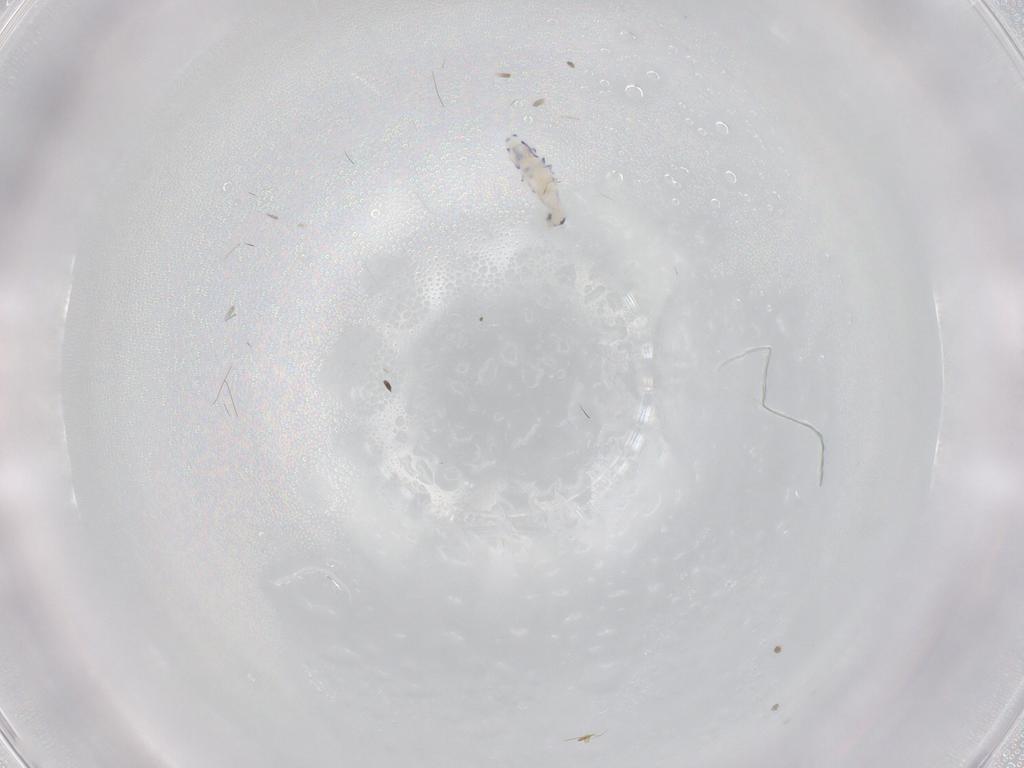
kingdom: Animalia
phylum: Arthropoda
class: Collembola
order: Entomobryomorpha
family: Entomobryidae
